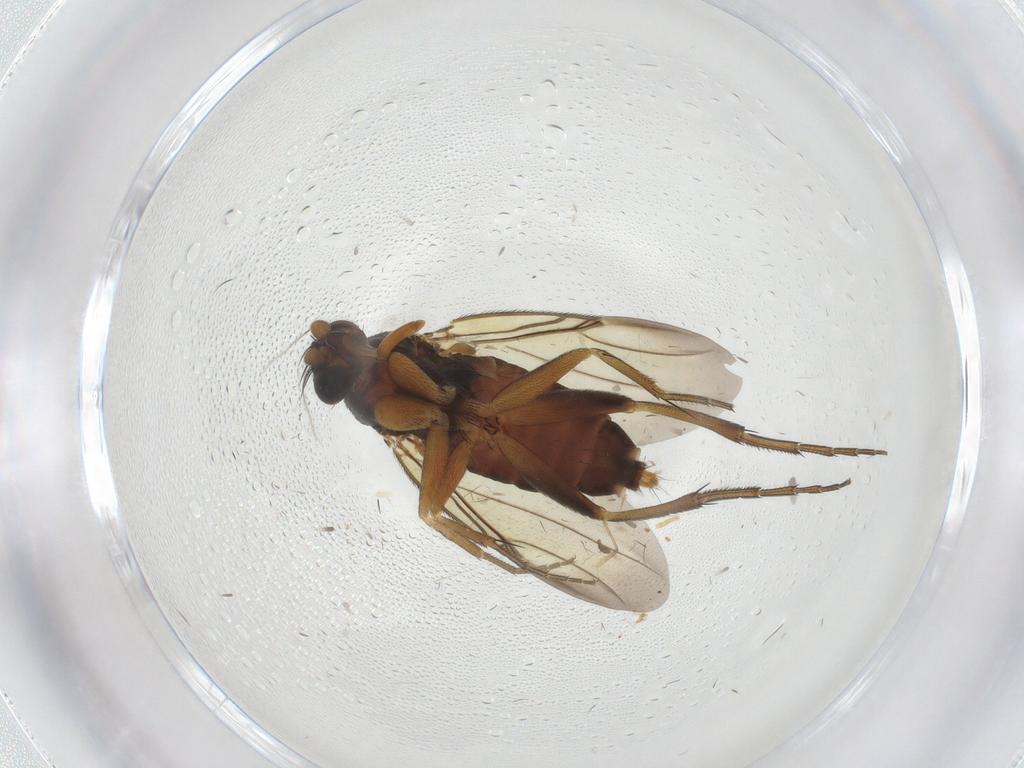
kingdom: Animalia
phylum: Arthropoda
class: Insecta
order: Diptera
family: Phoridae
